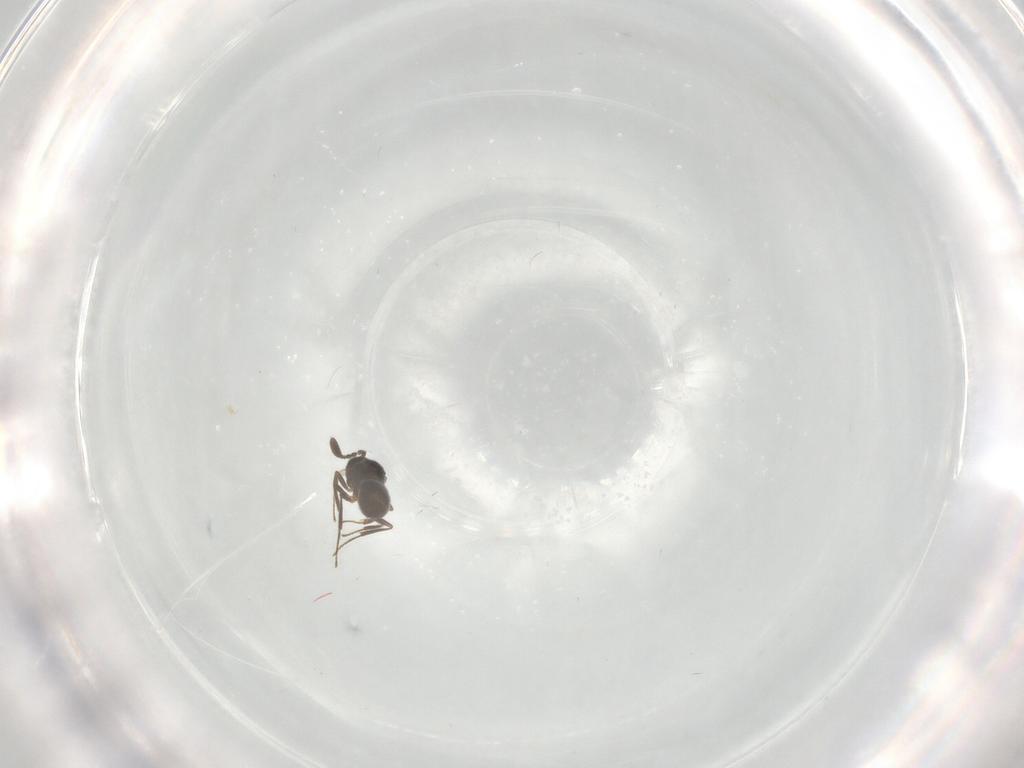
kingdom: Animalia
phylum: Arthropoda
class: Insecta
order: Hymenoptera
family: Scelionidae
